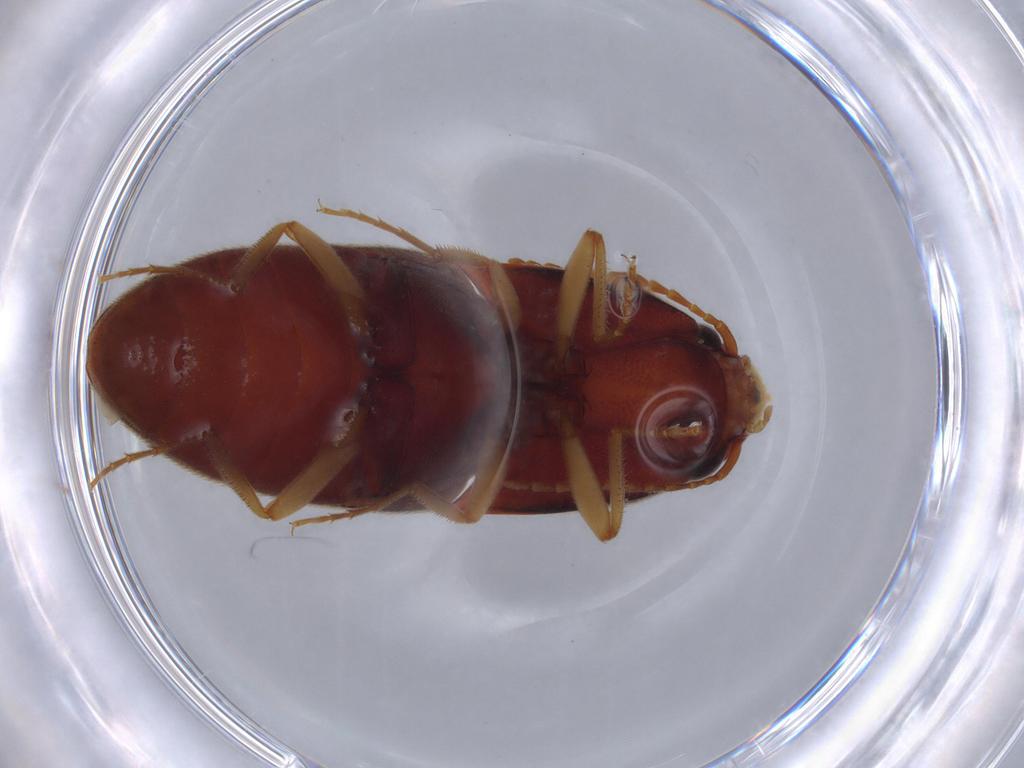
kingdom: Animalia
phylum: Arthropoda
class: Insecta
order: Coleoptera
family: Elateridae
